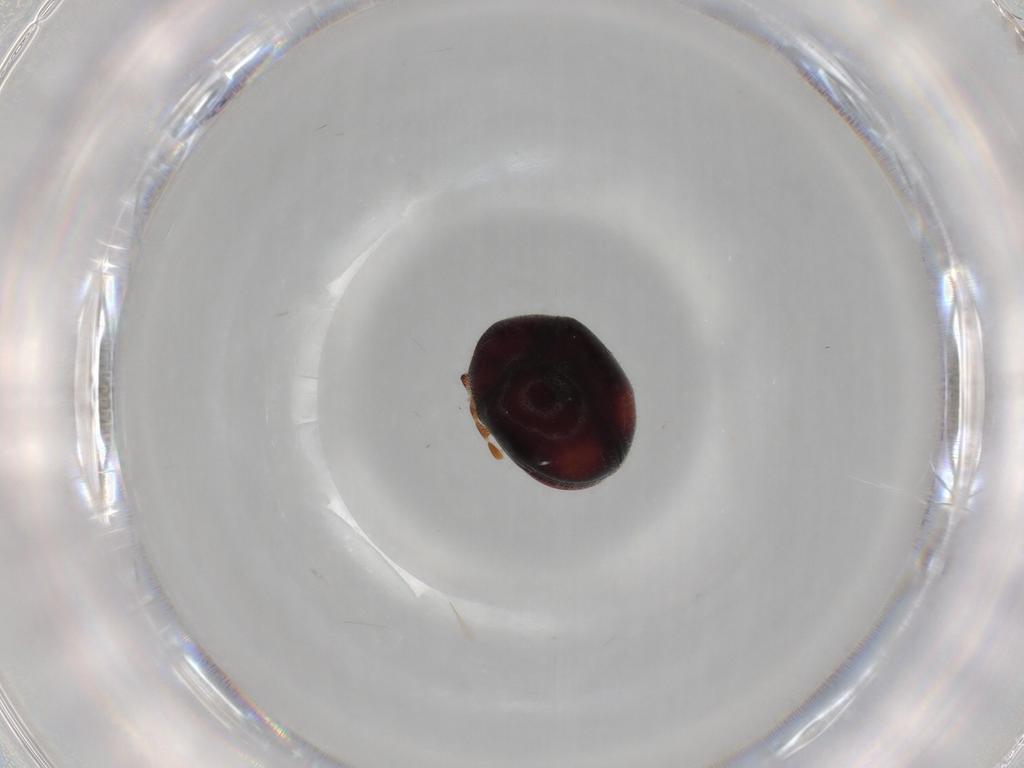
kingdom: Animalia
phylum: Arthropoda
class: Insecta
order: Coleoptera
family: Ptinidae
